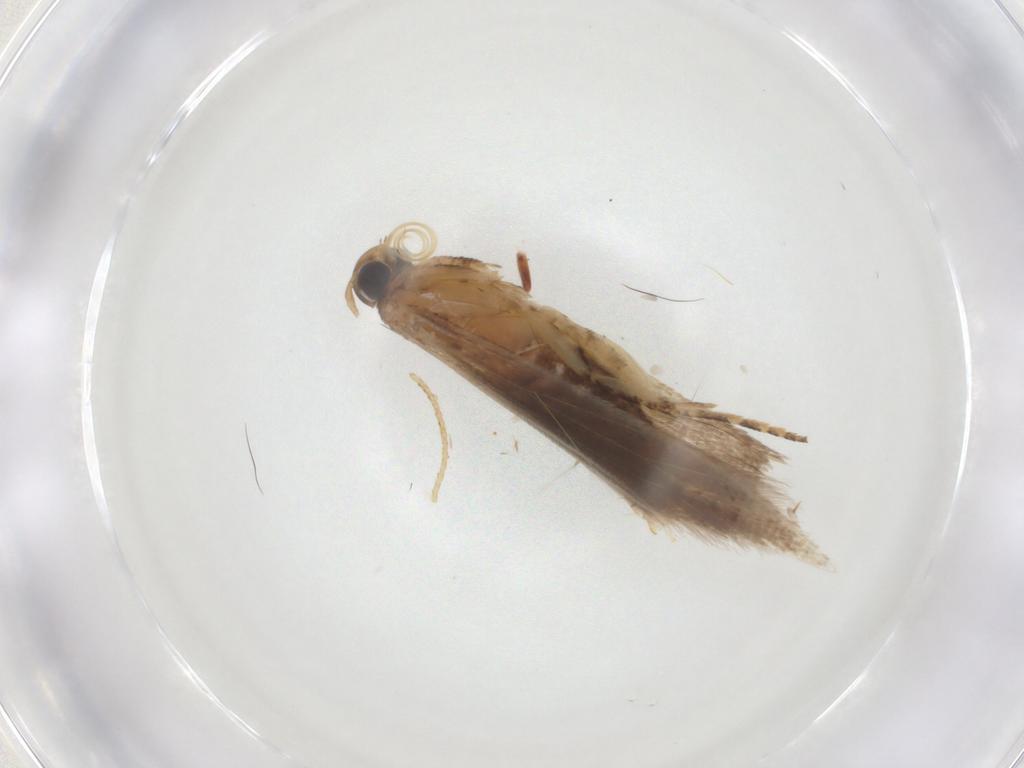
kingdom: Animalia
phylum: Arthropoda
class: Insecta
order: Lepidoptera
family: Gelechiidae
